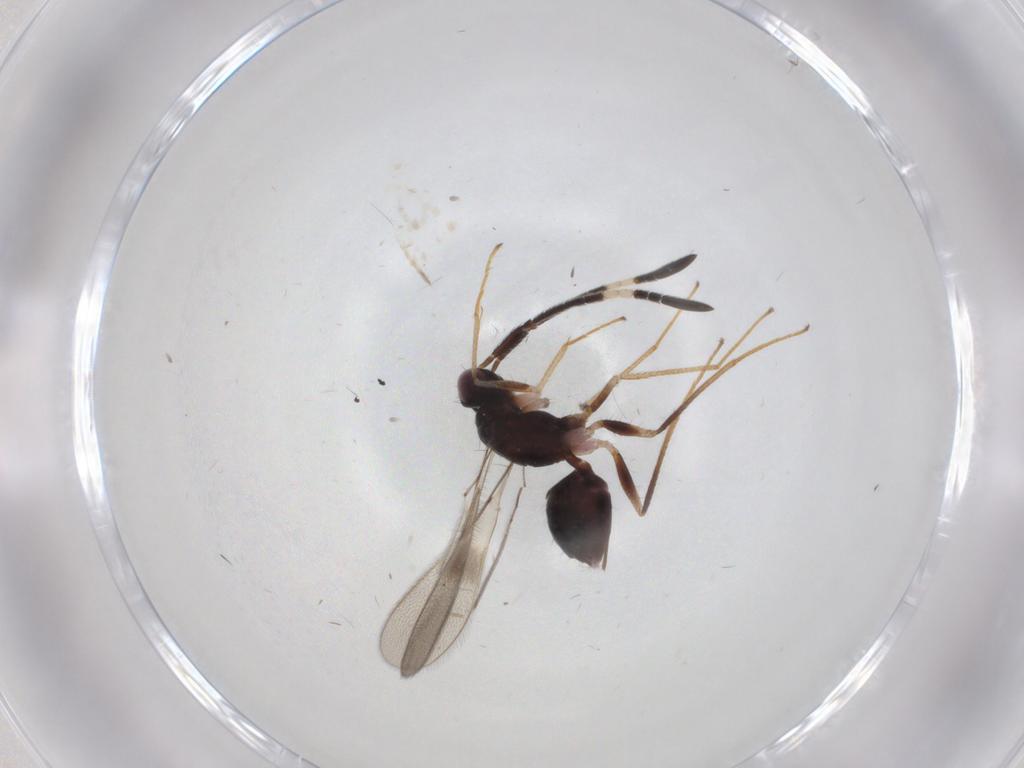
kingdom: Animalia
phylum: Arthropoda
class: Insecta
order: Hymenoptera
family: Mymaridae
